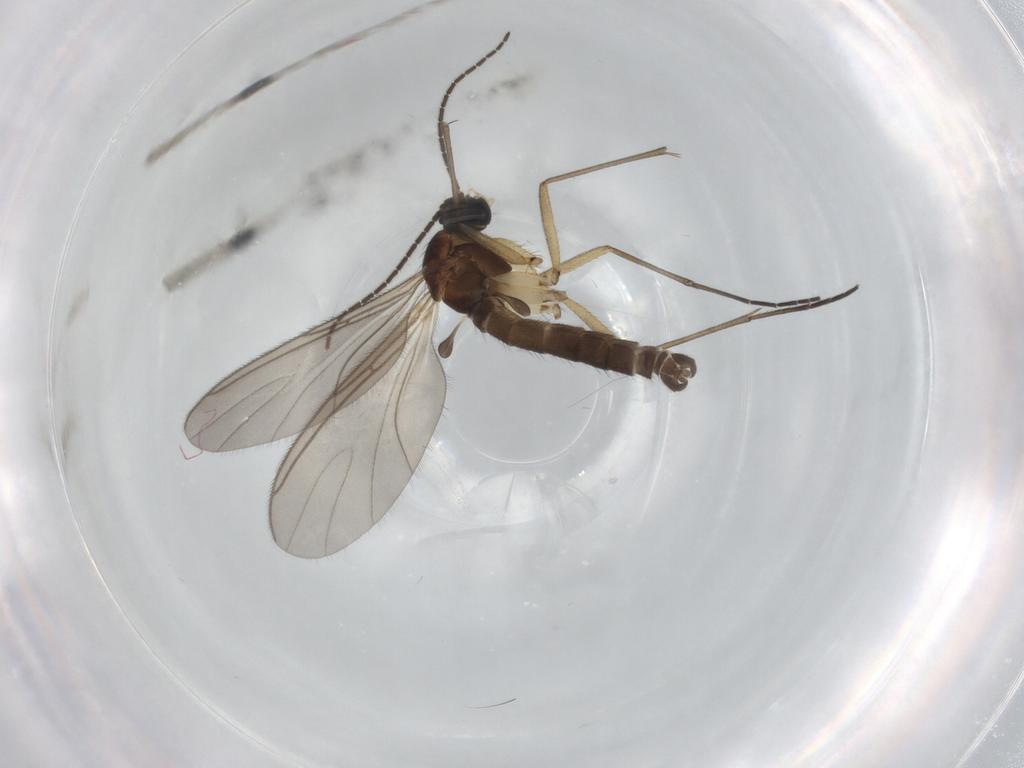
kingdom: Animalia
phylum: Arthropoda
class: Insecta
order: Diptera
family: Sciaridae
